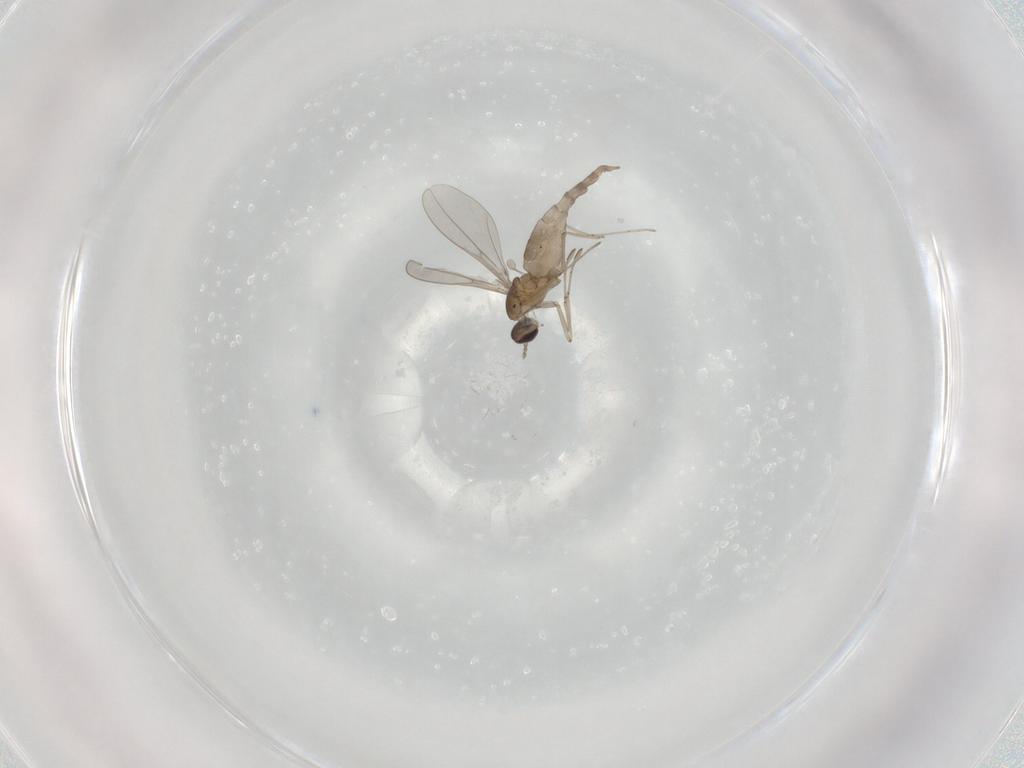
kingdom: Animalia
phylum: Arthropoda
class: Insecta
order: Diptera
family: Cecidomyiidae
